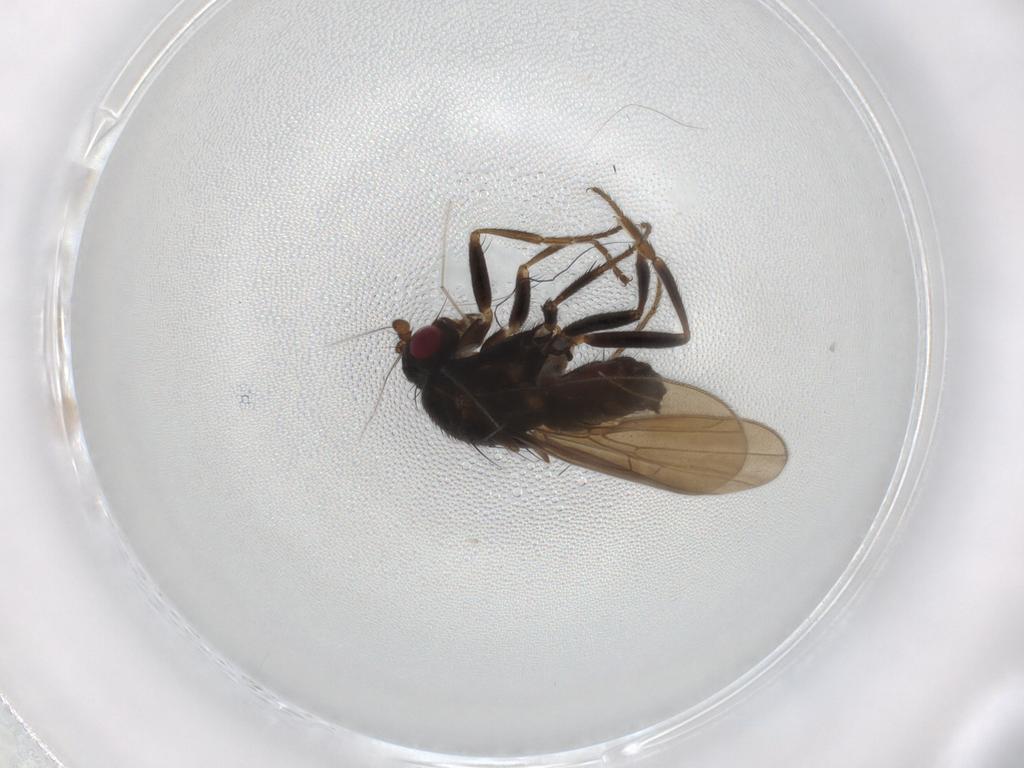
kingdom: Animalia
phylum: Arthropoda
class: Insecta
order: Diptera
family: Sphaeroceridae
